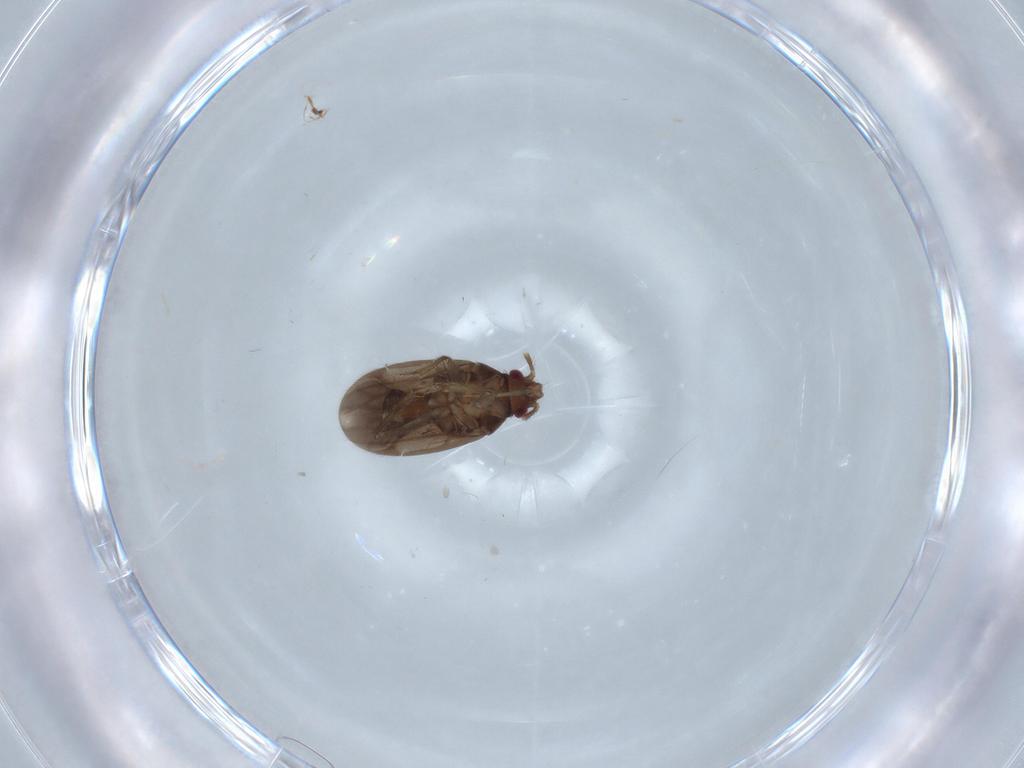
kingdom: Animalia
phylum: Arthropoda
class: Insecta
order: Hemiptera
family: Ceratocombidae
